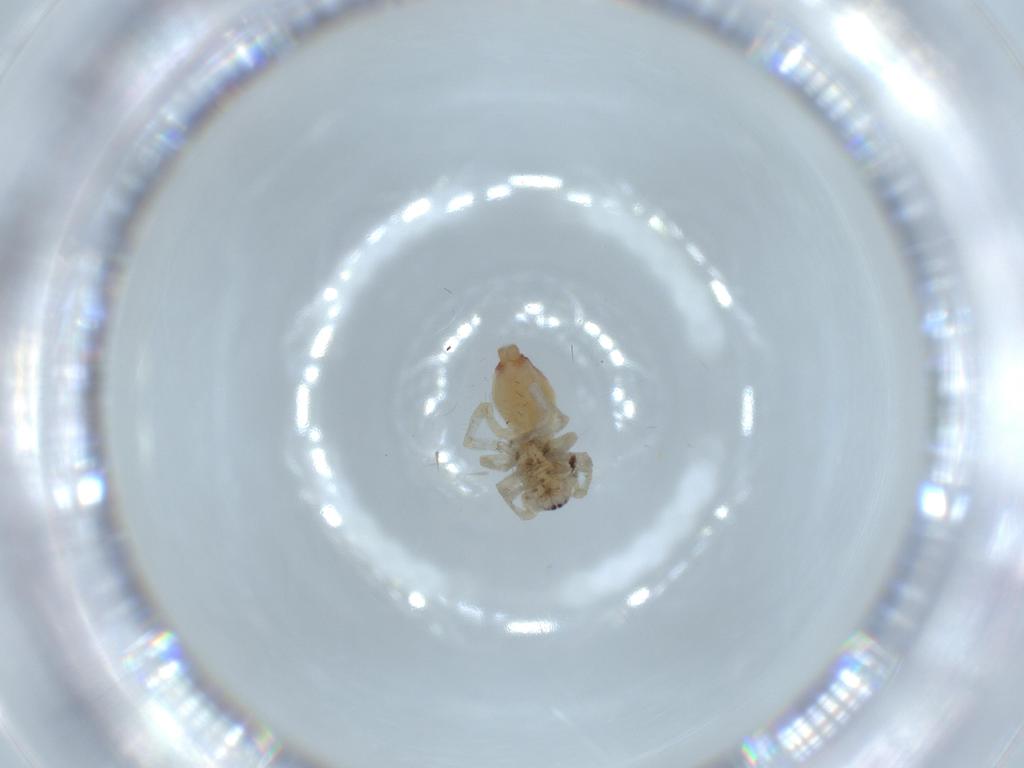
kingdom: Animalia
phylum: Arthropoda
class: Arachnida
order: Araneae
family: Clubionidae
